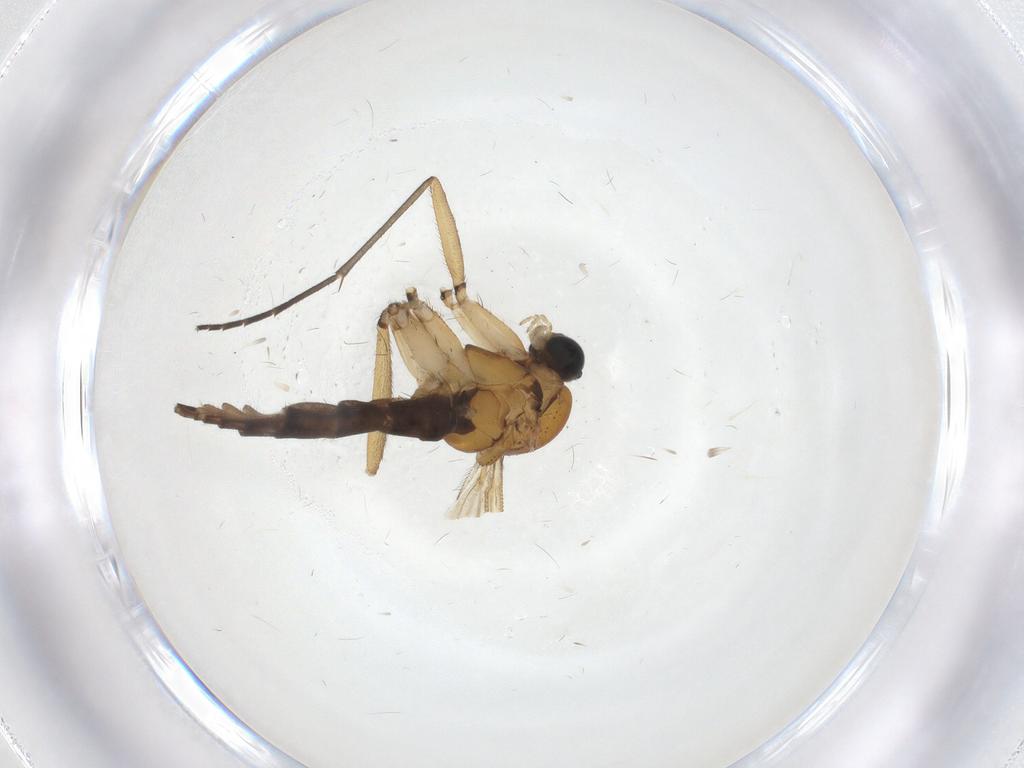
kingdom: Animalia
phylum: Arthropoda
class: Insecta
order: Diptera
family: Sciaridae
